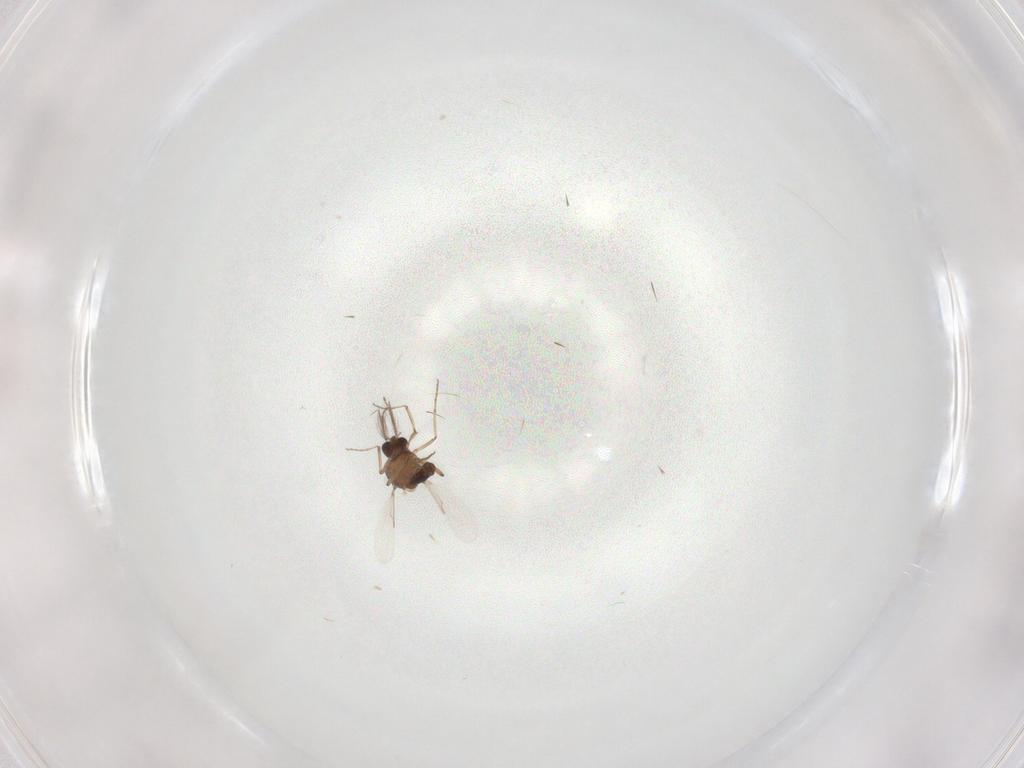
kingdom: Animalia
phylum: Arthropoda
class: Insecta
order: Diptera
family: Ceratopogonidae
